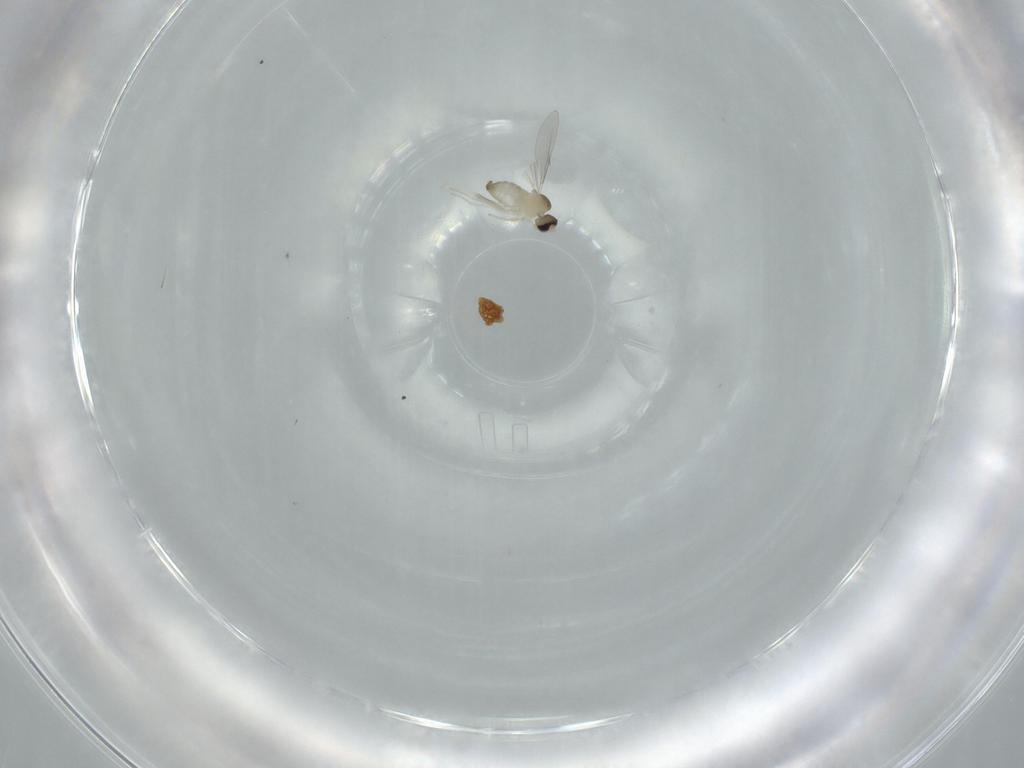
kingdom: Animalia
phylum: Arthropoda
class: Insecta
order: Diptera
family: Cecidomyiidae
